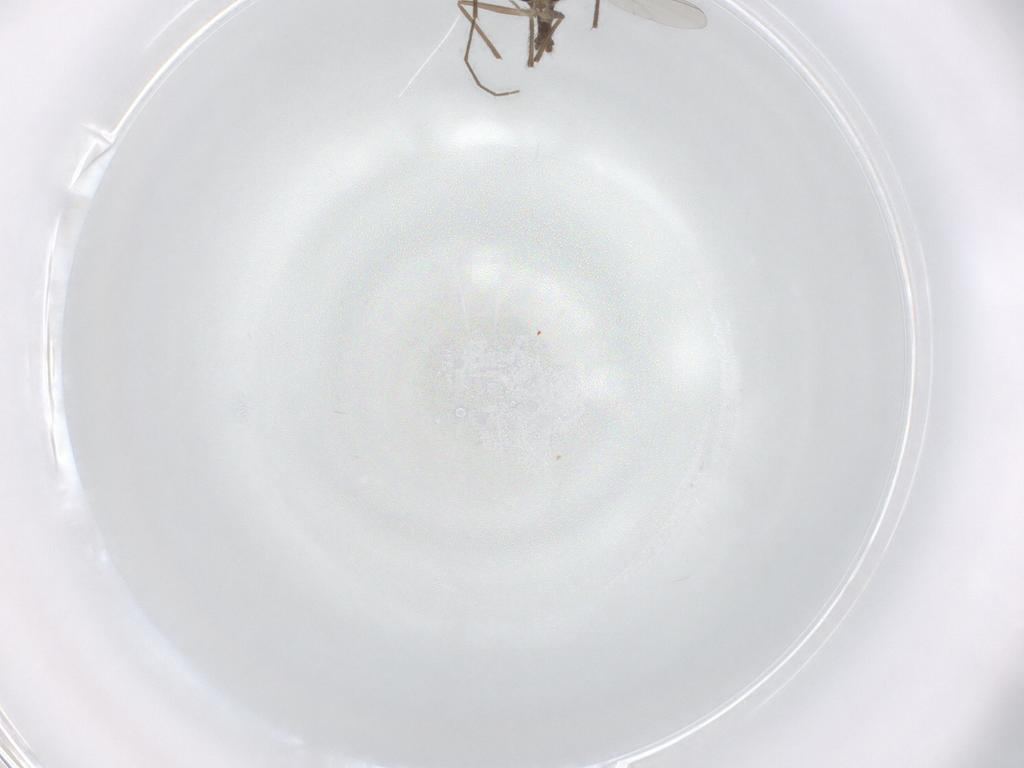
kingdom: Animalia
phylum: Arthropoda
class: Insecta
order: Diptera
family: Chironomidae
